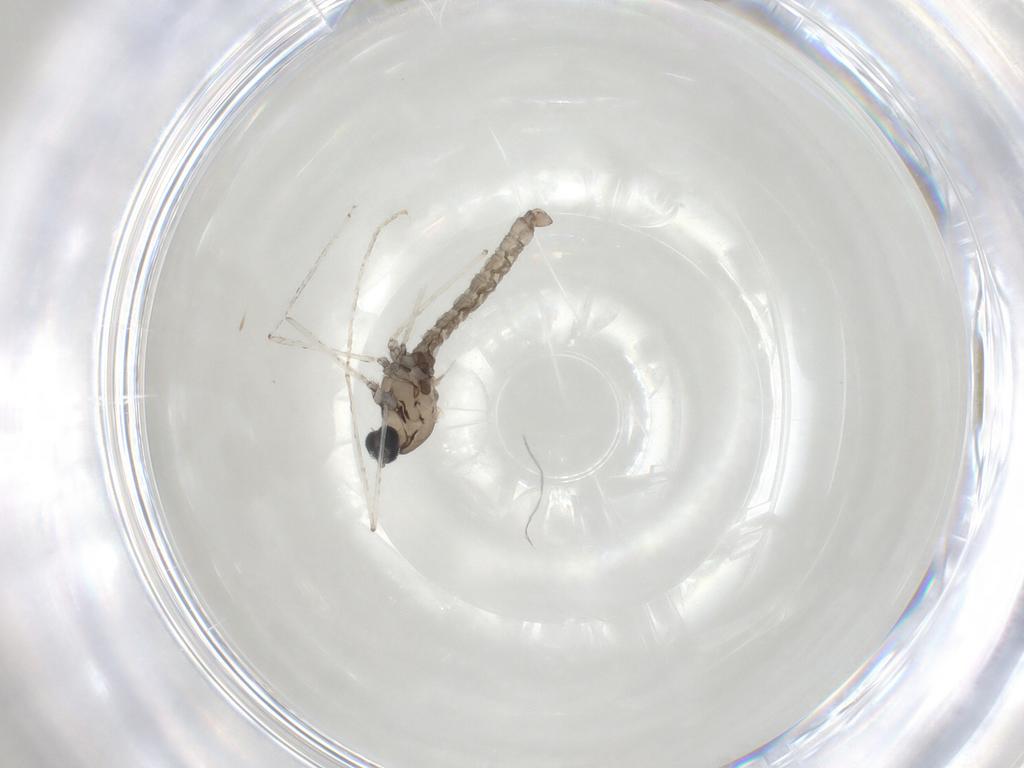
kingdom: Animalia
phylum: Arthropoda
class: Insecta
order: Diptera
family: Cecidomyiidae
